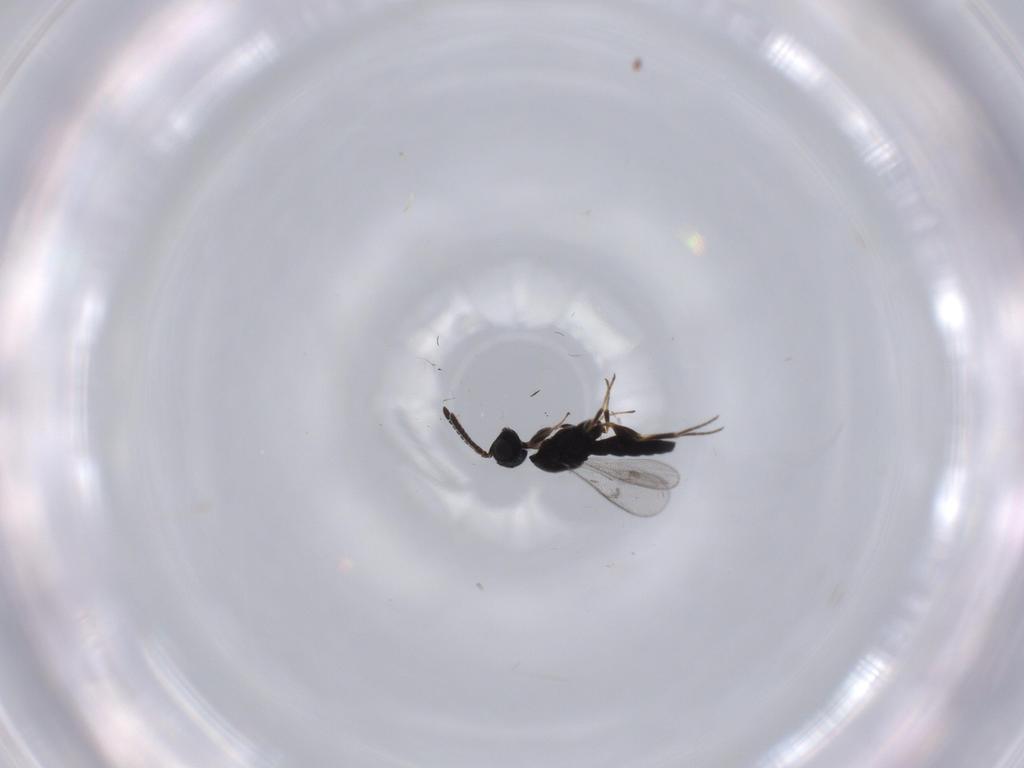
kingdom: Animalia
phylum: Arthropoda
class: Insecta
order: Hymenoptera
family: Scelionidae
